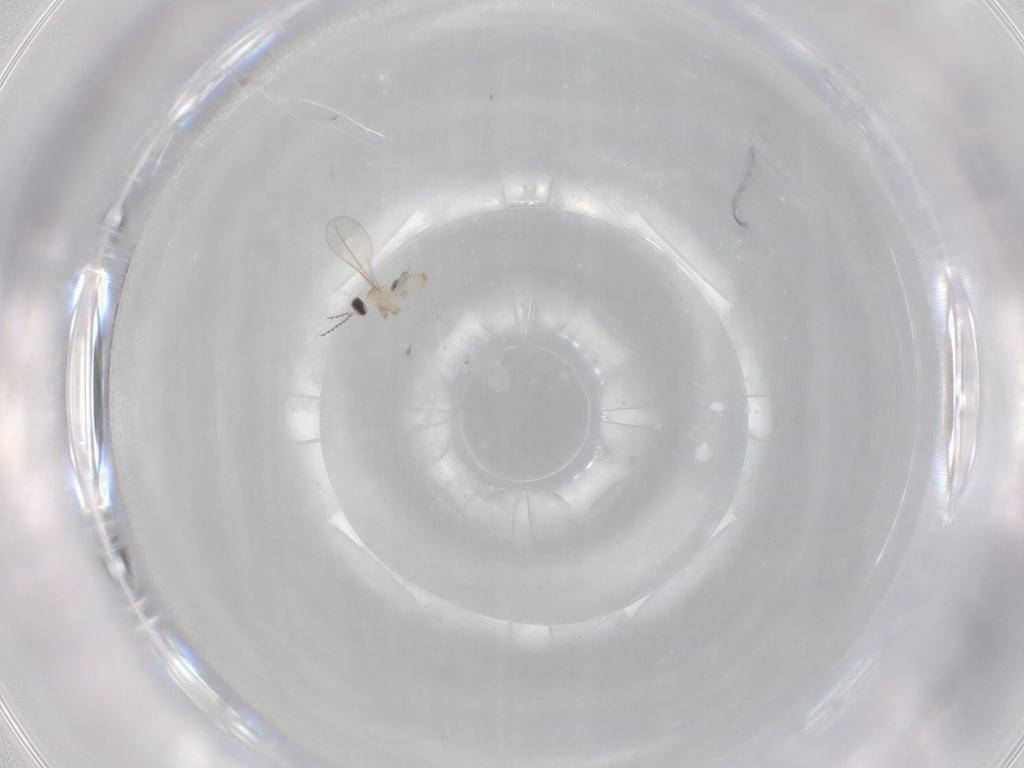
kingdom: Animalia
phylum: Arthropoda
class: Insecta
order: Diptera
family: Cecidomyiidae
